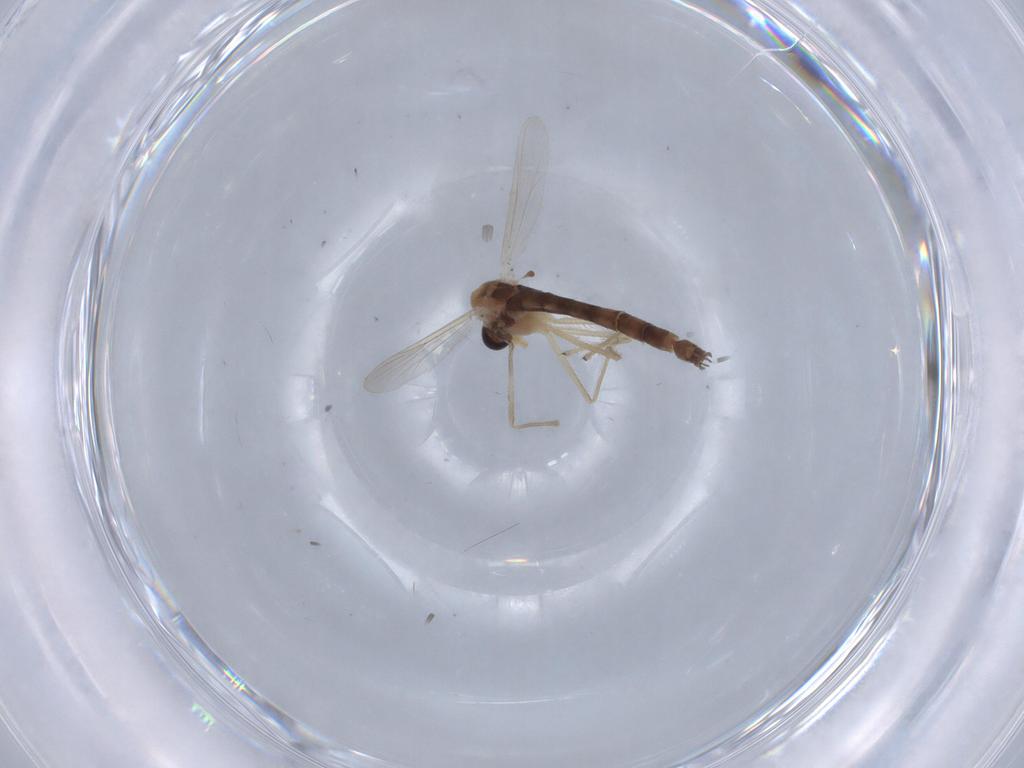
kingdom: Animalia
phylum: Arthropoda
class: Insecta
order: Diptera
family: Chironomidae
